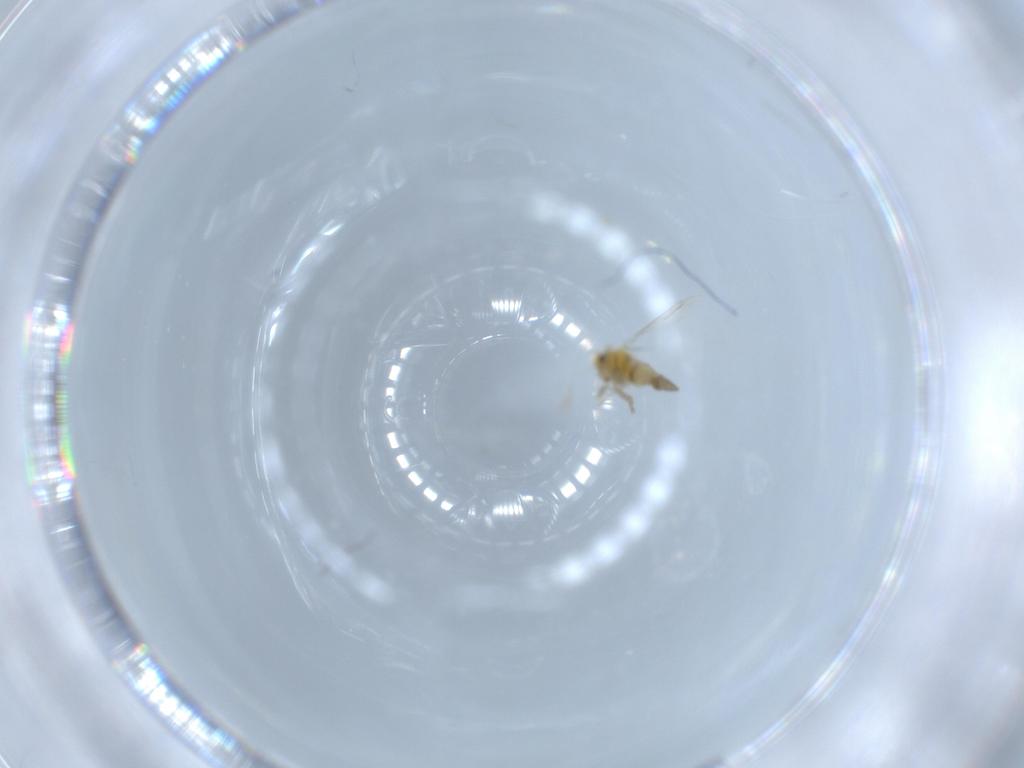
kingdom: Animalia
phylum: Arthropoda
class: Insecta
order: Hemiptera
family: Aleyrodidae
